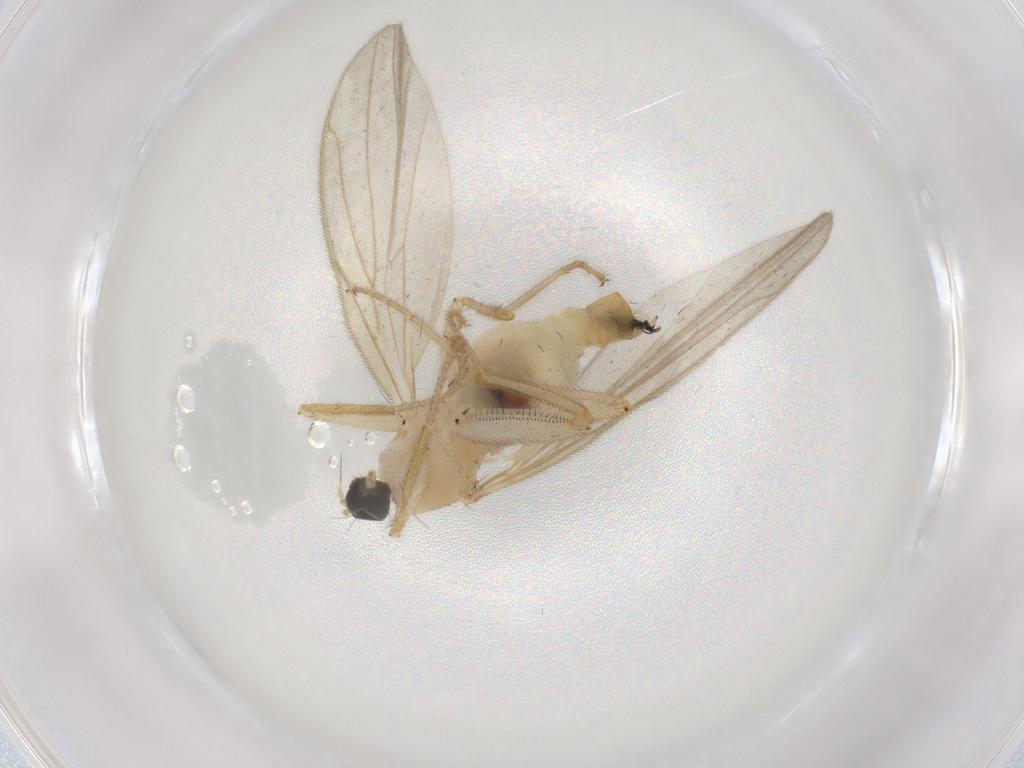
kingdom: Animalia
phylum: Arthropoda
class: Insecta
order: Diptera
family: Hybotidae
